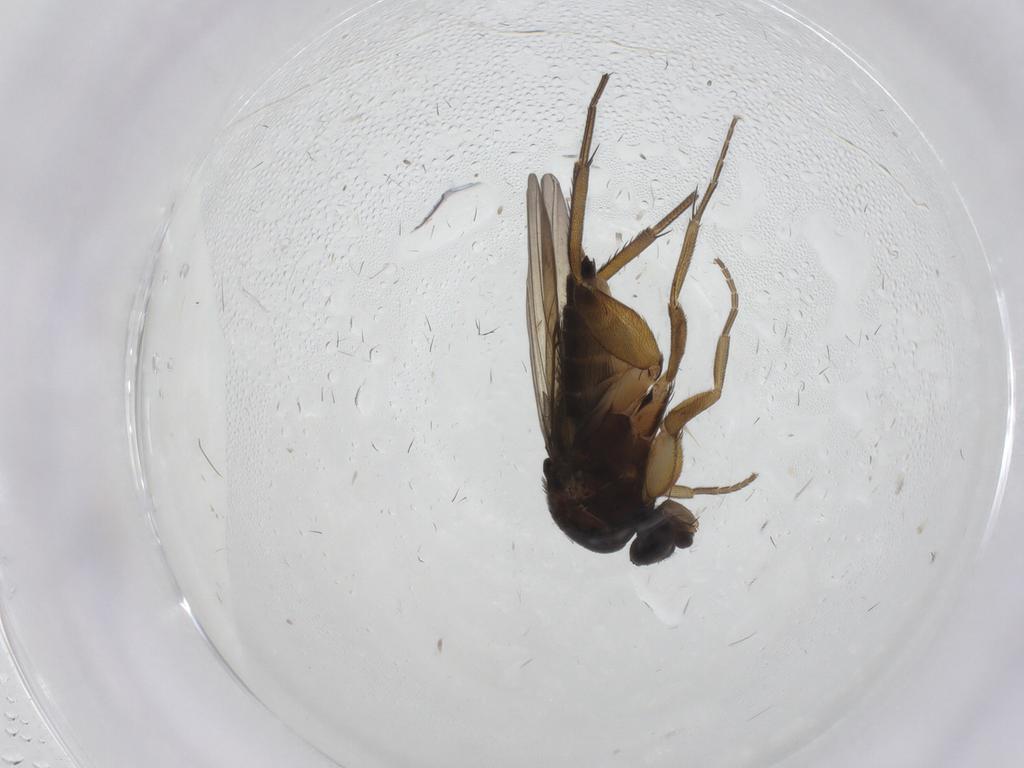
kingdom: Animalia
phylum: Arthropoda
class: Insecta
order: Diptera
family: Phoridae
